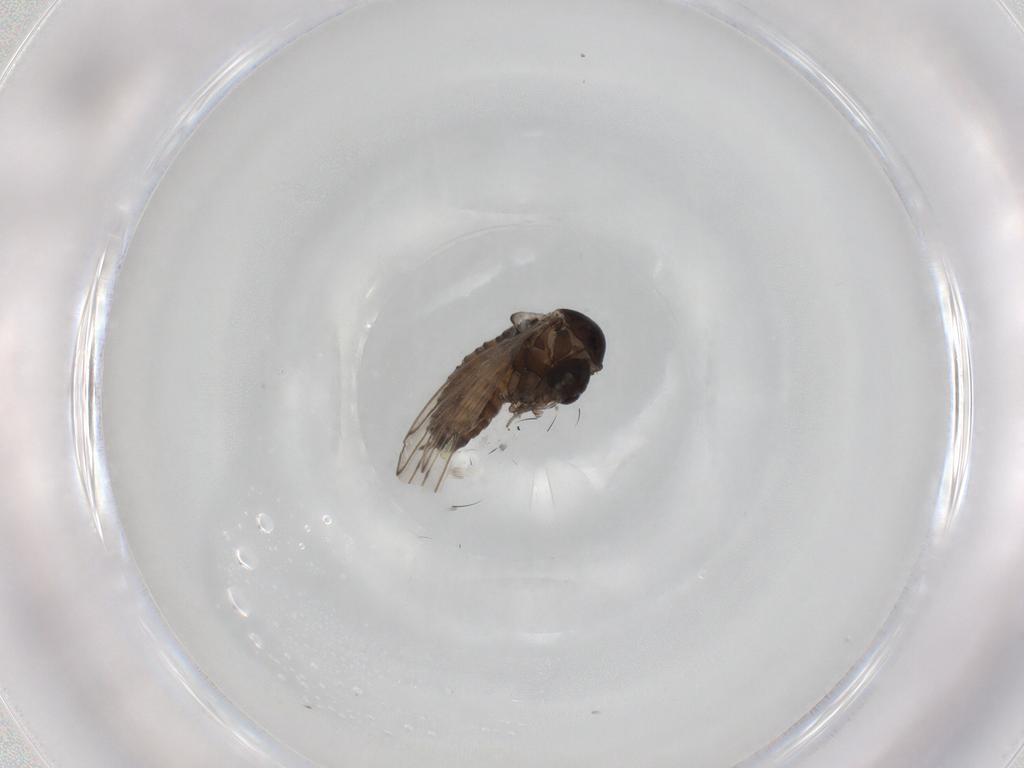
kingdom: Animalia
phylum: Arthropoda
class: Insecta
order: Diptera
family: Psychodidae
